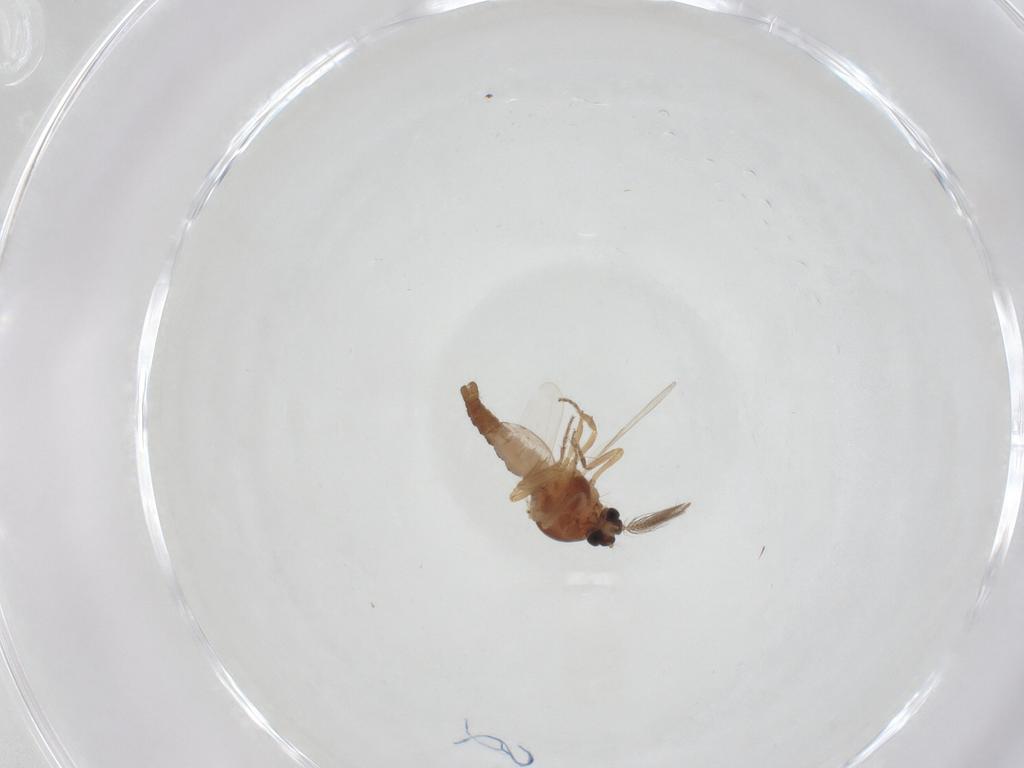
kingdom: Animalia
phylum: Arthropoda
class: Insecta
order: Diptera
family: Ceratopogonidae
